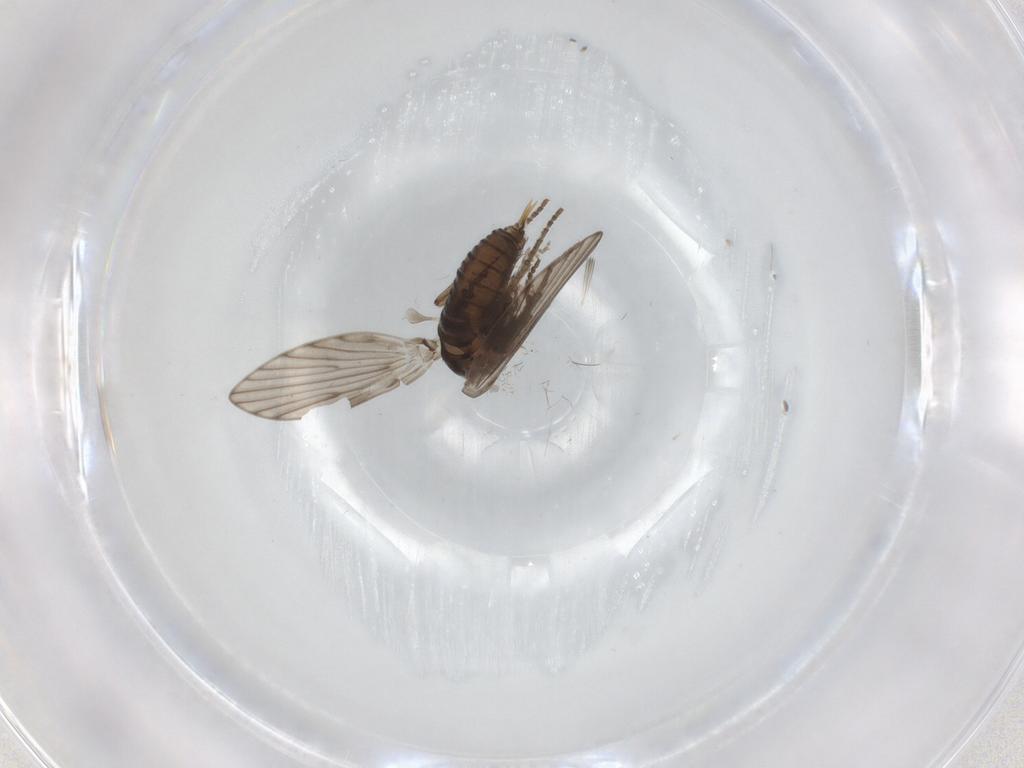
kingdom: Animalia
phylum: Arthropoda
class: Insecta
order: Diptera
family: Psychodidae
